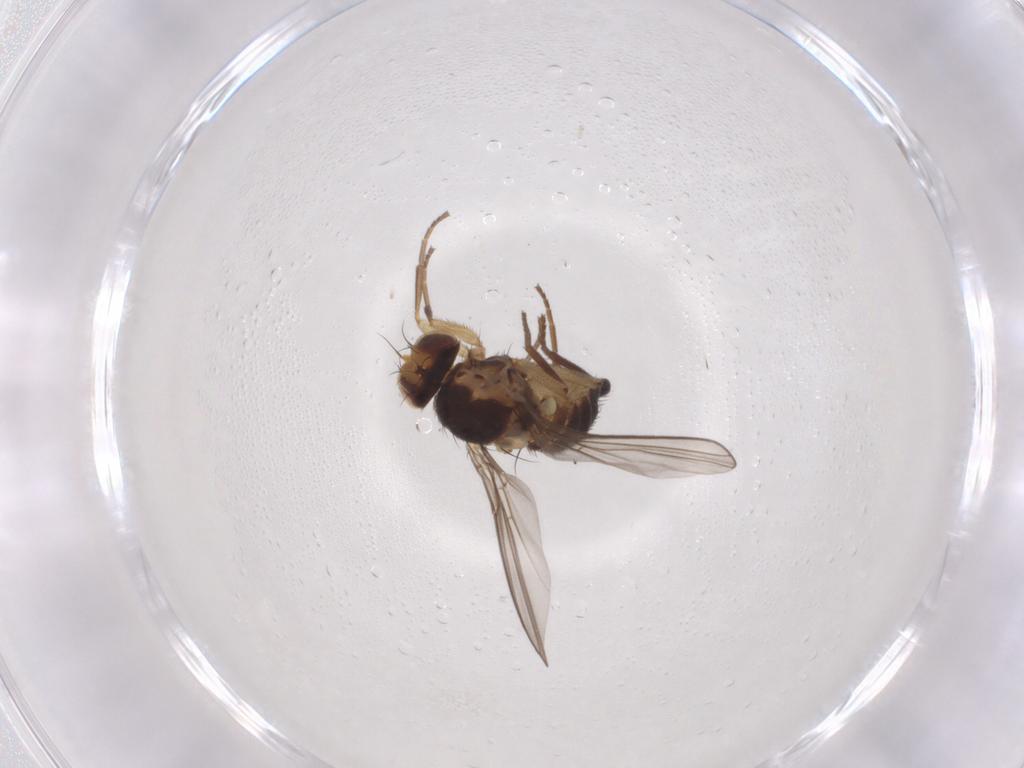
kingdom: Animalia
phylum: Arthropoda
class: Insecta
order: Diptera
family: Agromyzidae
